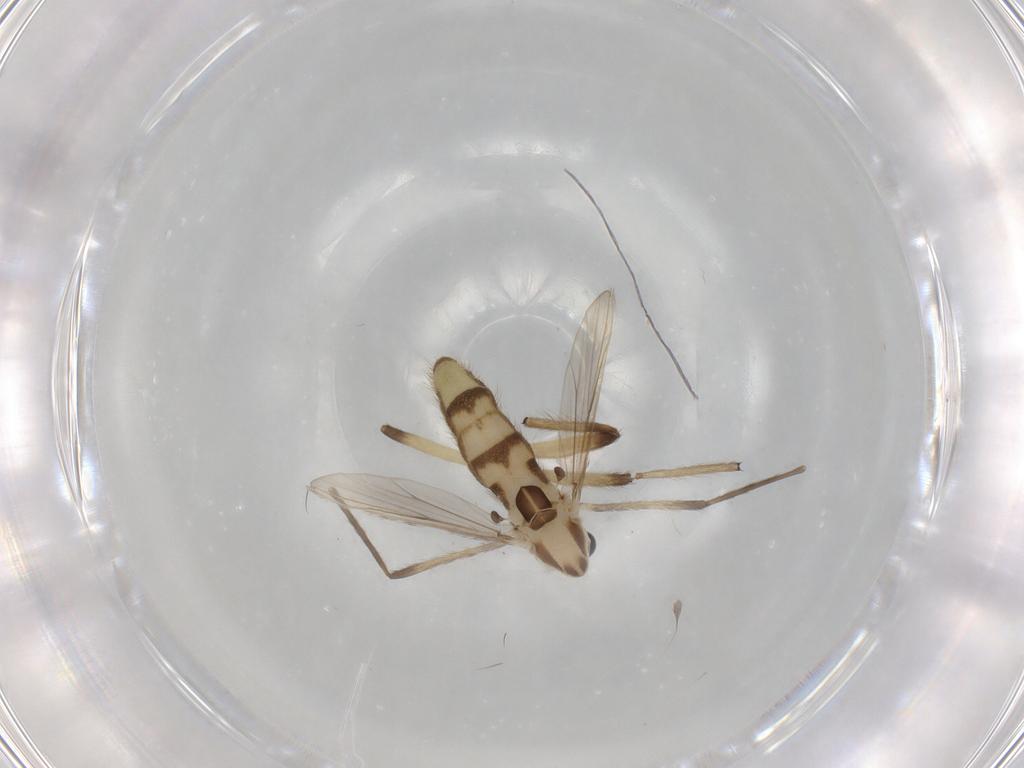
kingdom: Animalia
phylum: Arthropoda
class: Insecta
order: Diptera
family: Chironomidae
